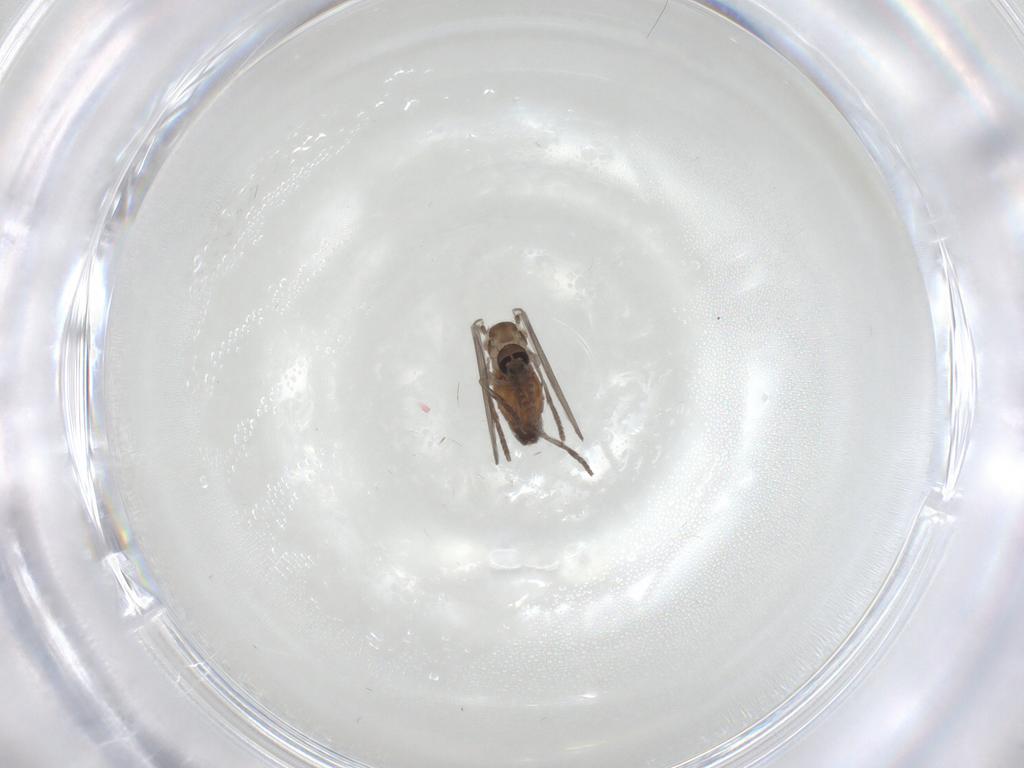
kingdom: Animalia
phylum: Arthropoda
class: Insecta
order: Diptera
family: Psychodidae
